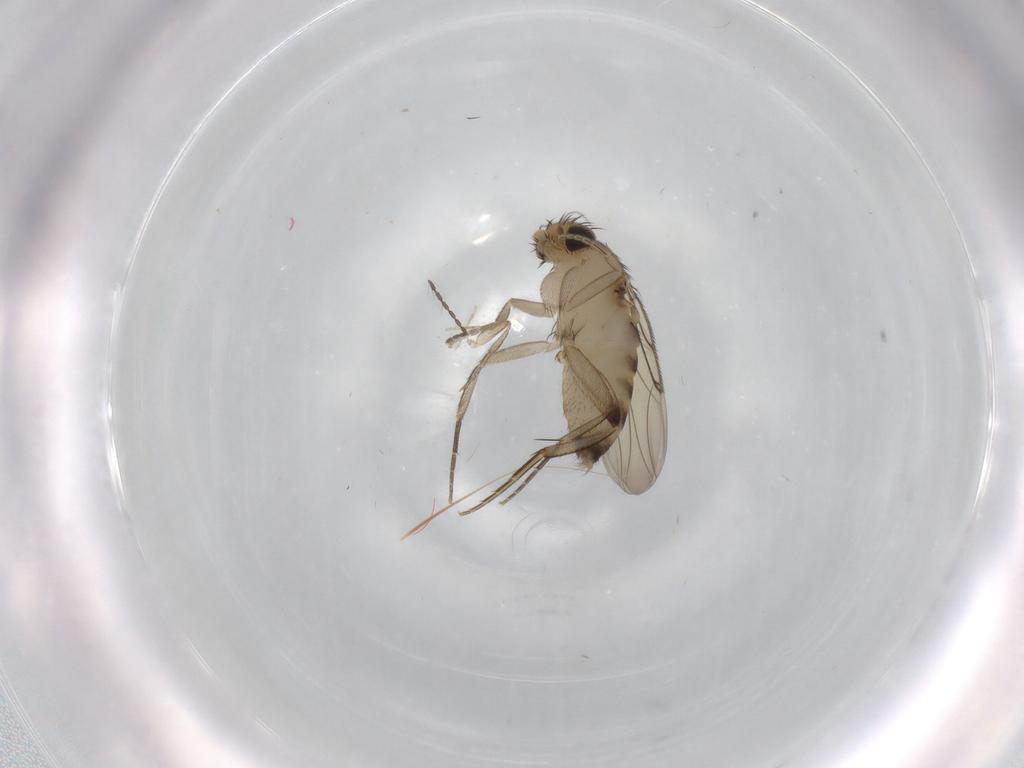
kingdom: Animalia
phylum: Arthropoda
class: Insecta
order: Diptera
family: Phoridae
